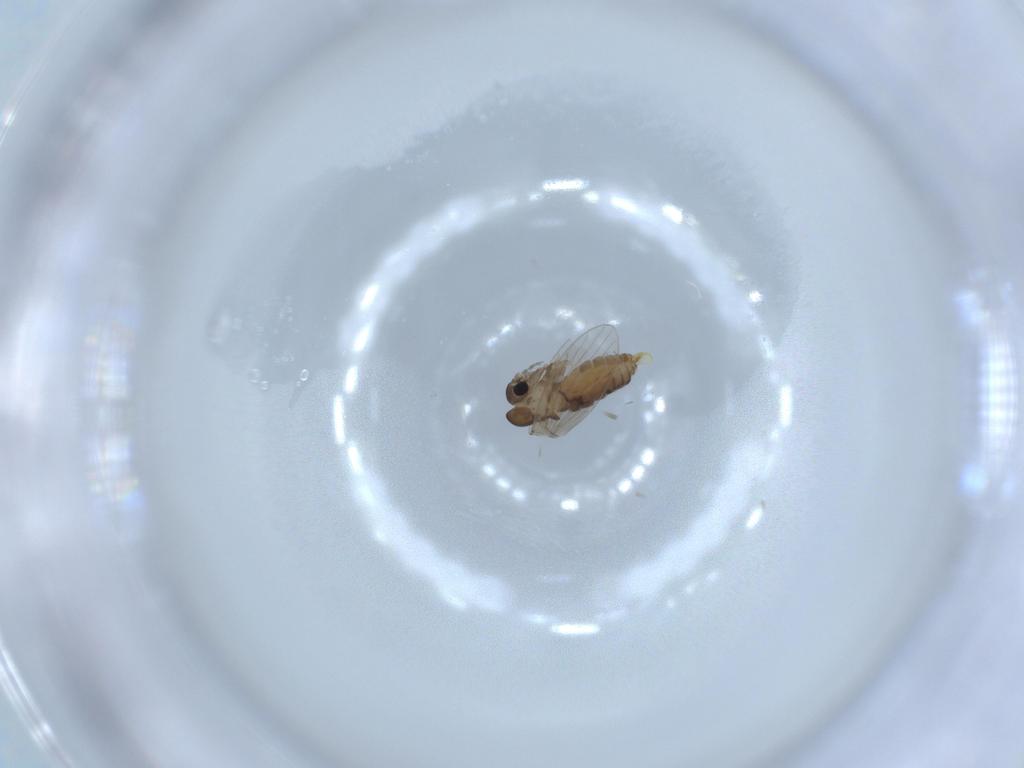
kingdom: Animalia
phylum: Arthropoda
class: Insecta
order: Diptera
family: Psychodidae
